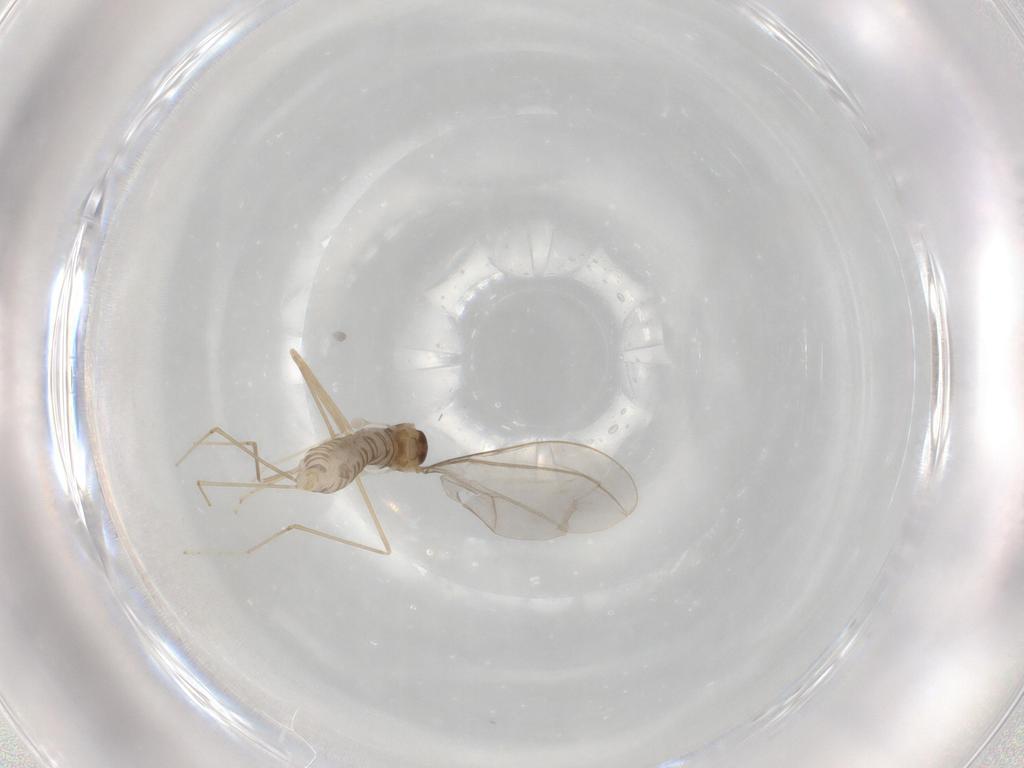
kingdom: Animalia
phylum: Arthropoda
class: Insecta
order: Diptera
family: Cecidomyiidae
